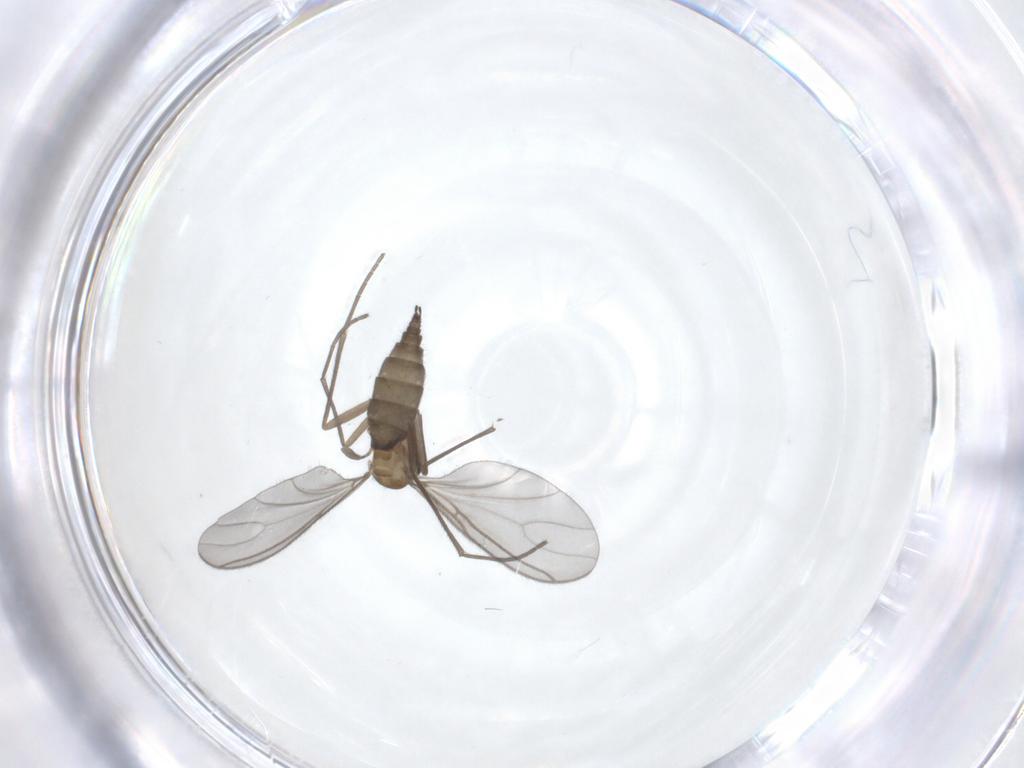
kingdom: Animalia
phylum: Arthropoda
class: Insecta
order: Diptera
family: Sciaridae
